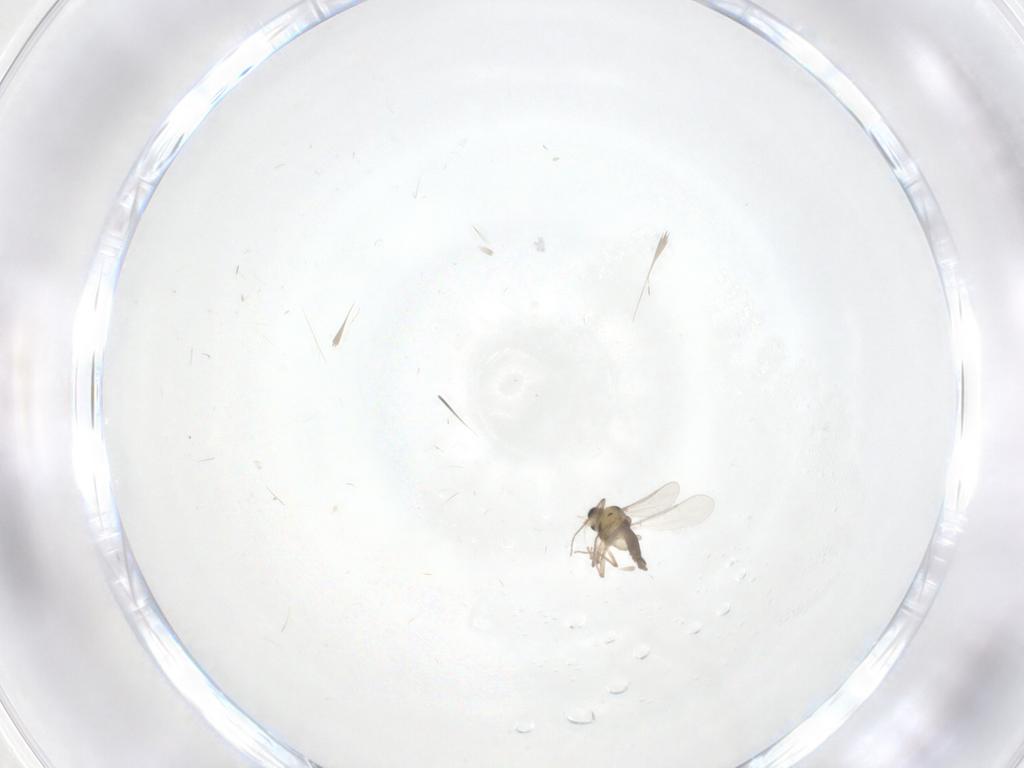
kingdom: Animalia
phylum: Arthropoda
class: Insecta
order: Diptera
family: Chironomidae
